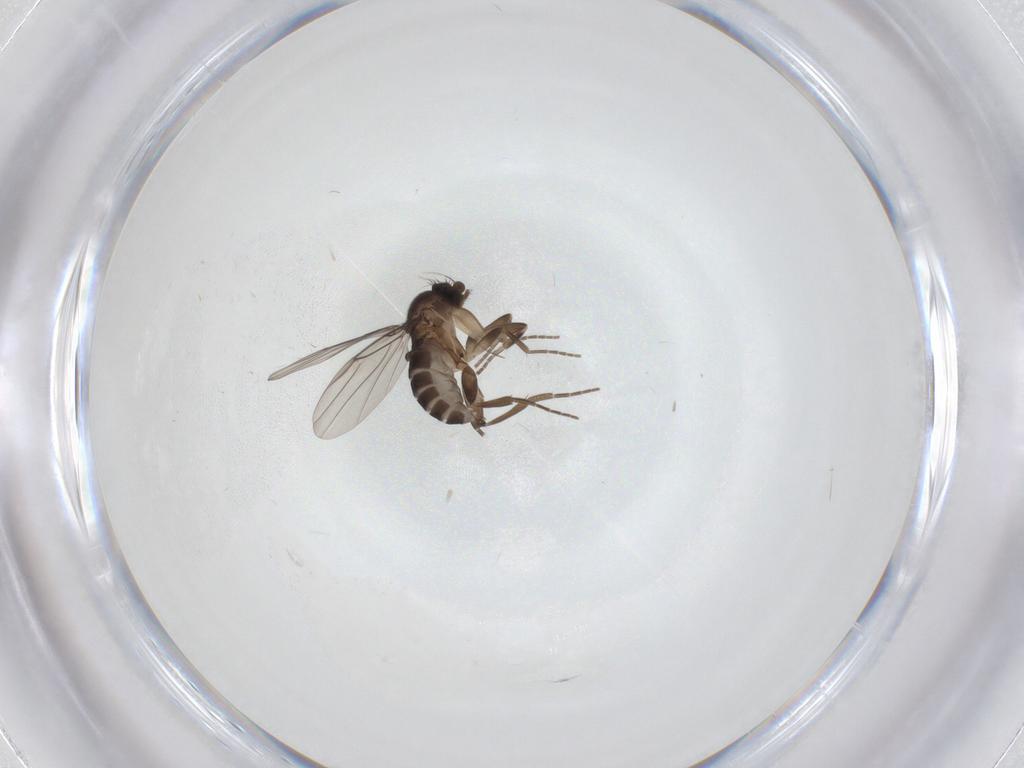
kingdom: Animalia
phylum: Arthropoda
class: Insecta
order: Diptera
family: Phoridae
